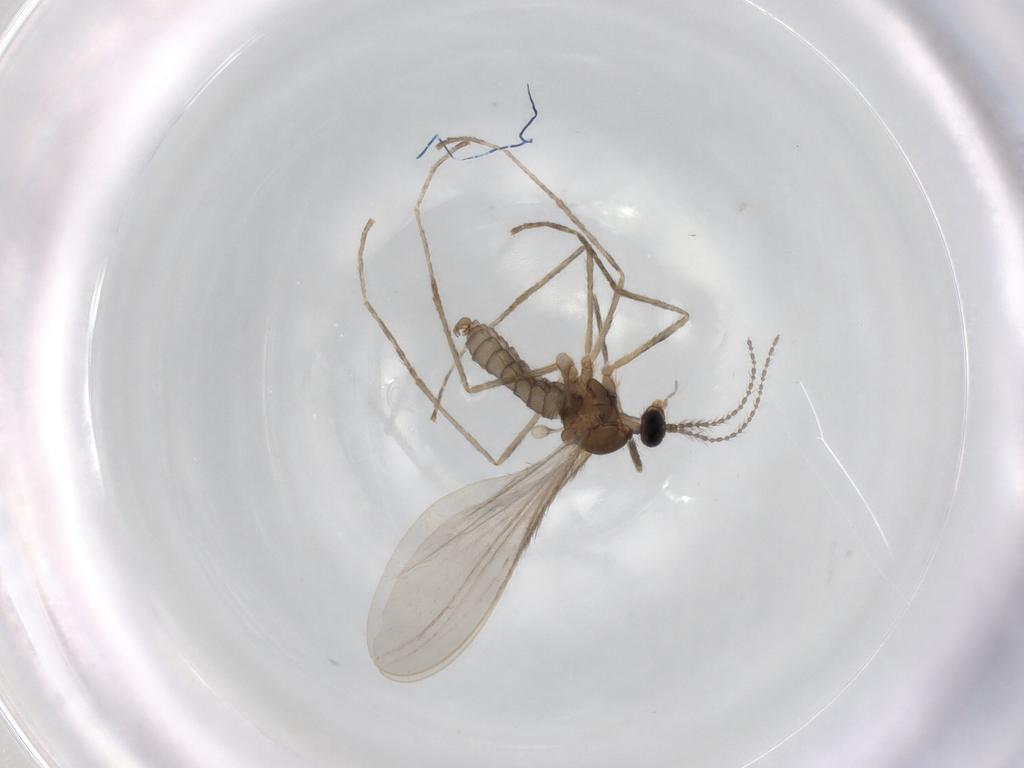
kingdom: Animalia
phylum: Arthropoda
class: Insecta
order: Diptera
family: Cecidomyiidae
